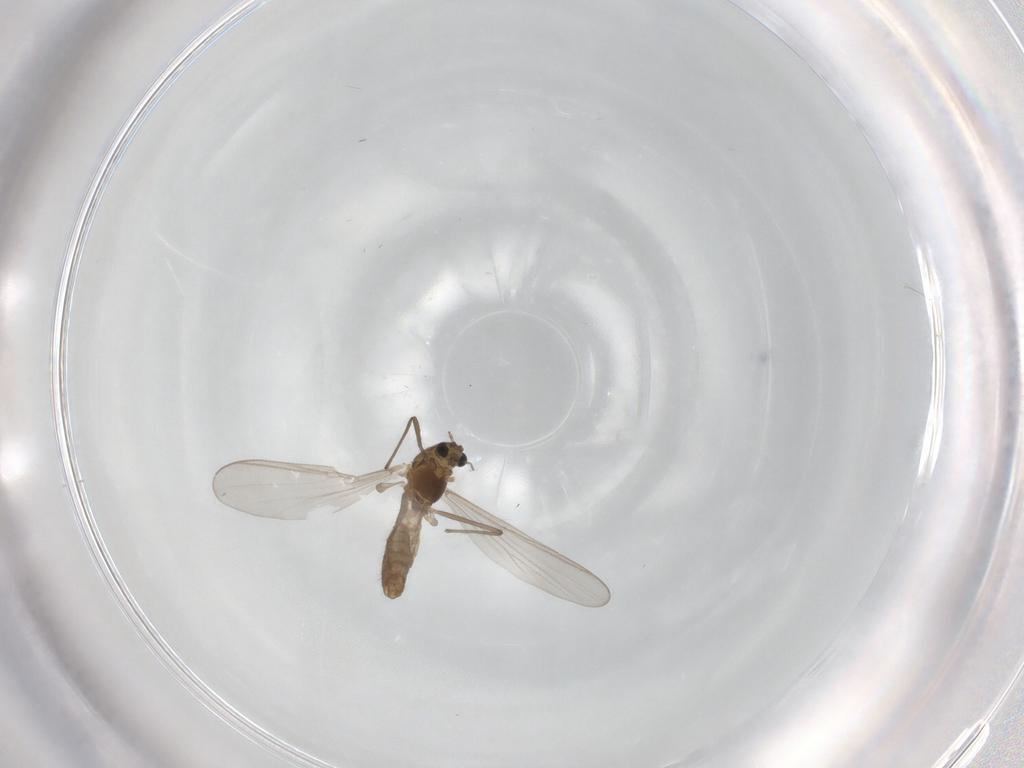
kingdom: Animalia
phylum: Arthropoda
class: Insecta
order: Diptera
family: Chironomidae
